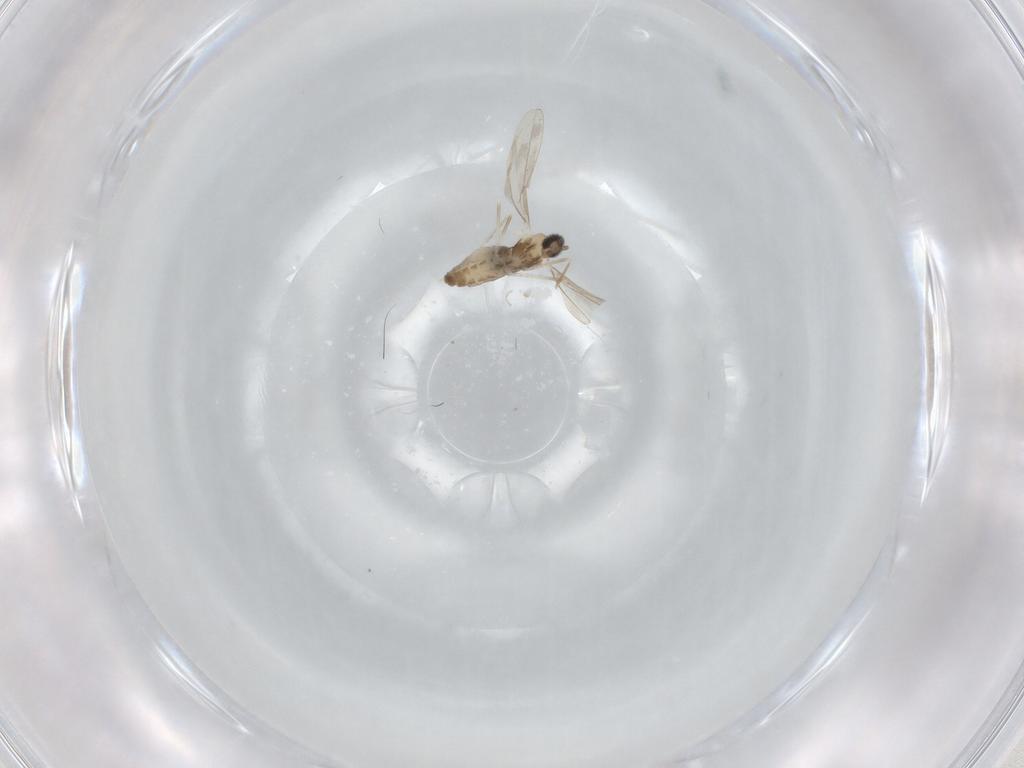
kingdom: Animalia
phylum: Arthropoda
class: Insecta
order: Diptera
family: Cecidomyiidae
